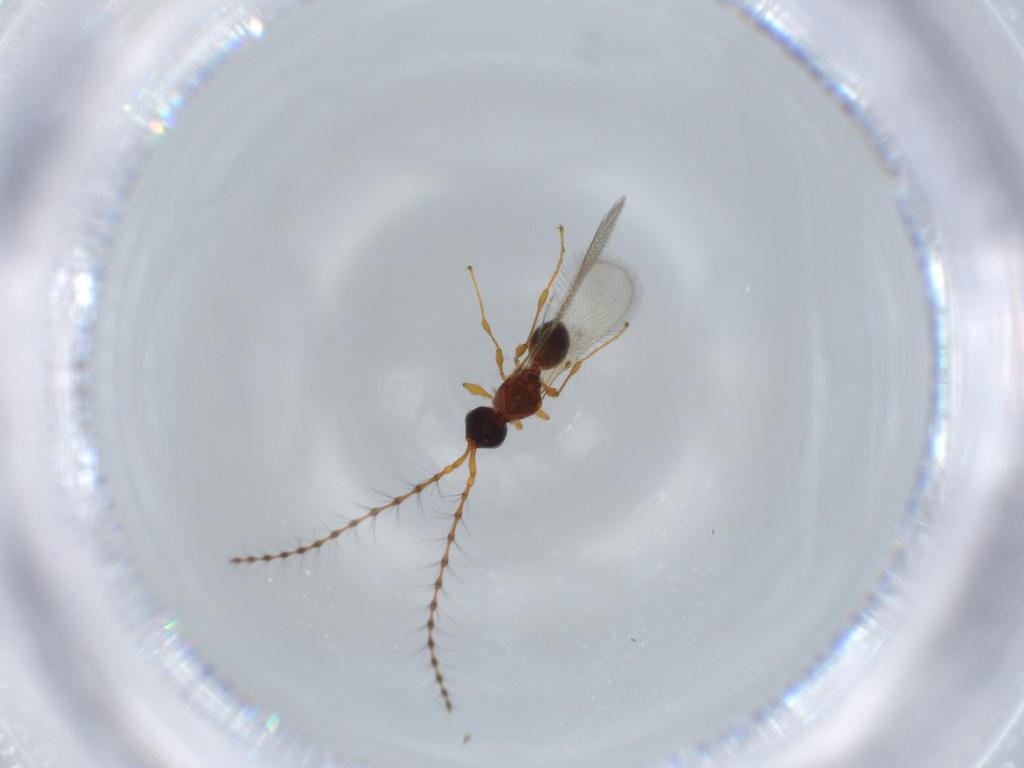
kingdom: Animalia
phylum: Arthropoda
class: Insecta
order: Hymenoptera
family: Diapriidae
